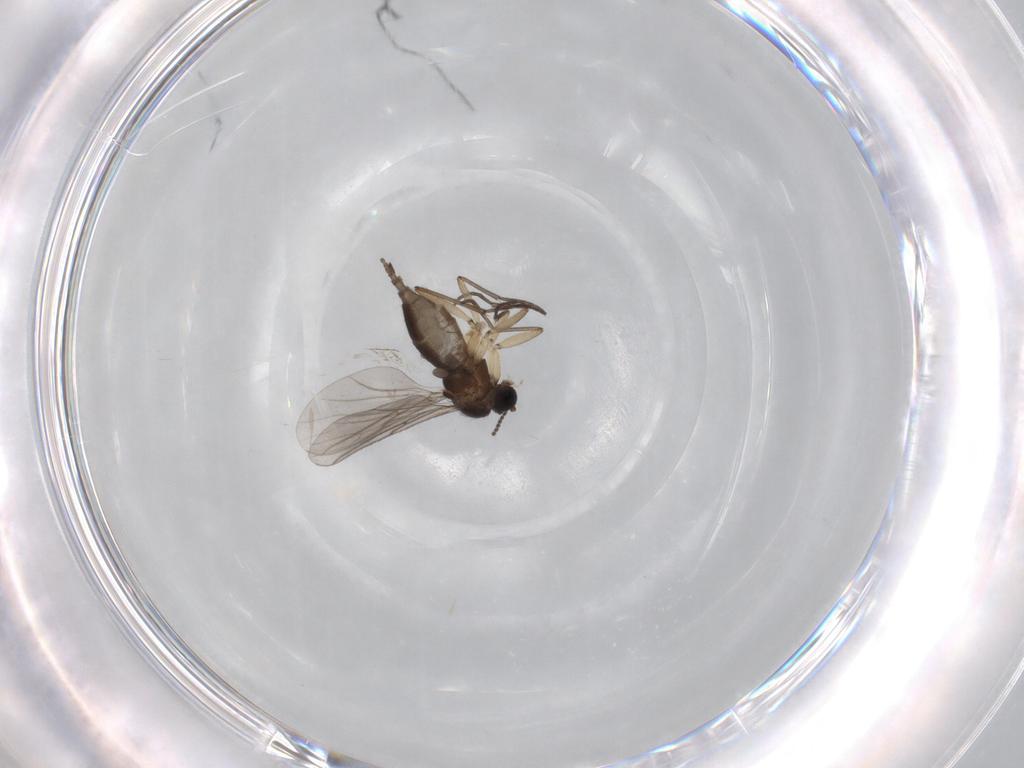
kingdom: Animalia
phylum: Arthropoda
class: Insecta
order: Diptera
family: Sciaridae
